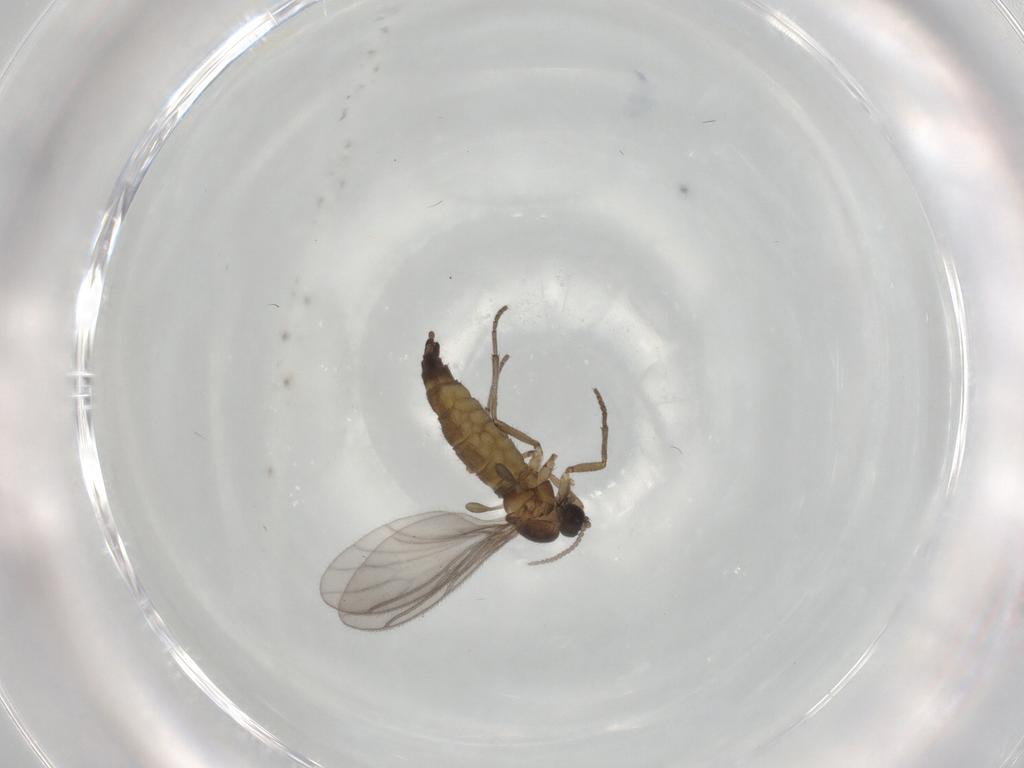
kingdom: Animalia
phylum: Arthropoda
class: Insecta
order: Diptera
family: Sciaridae
